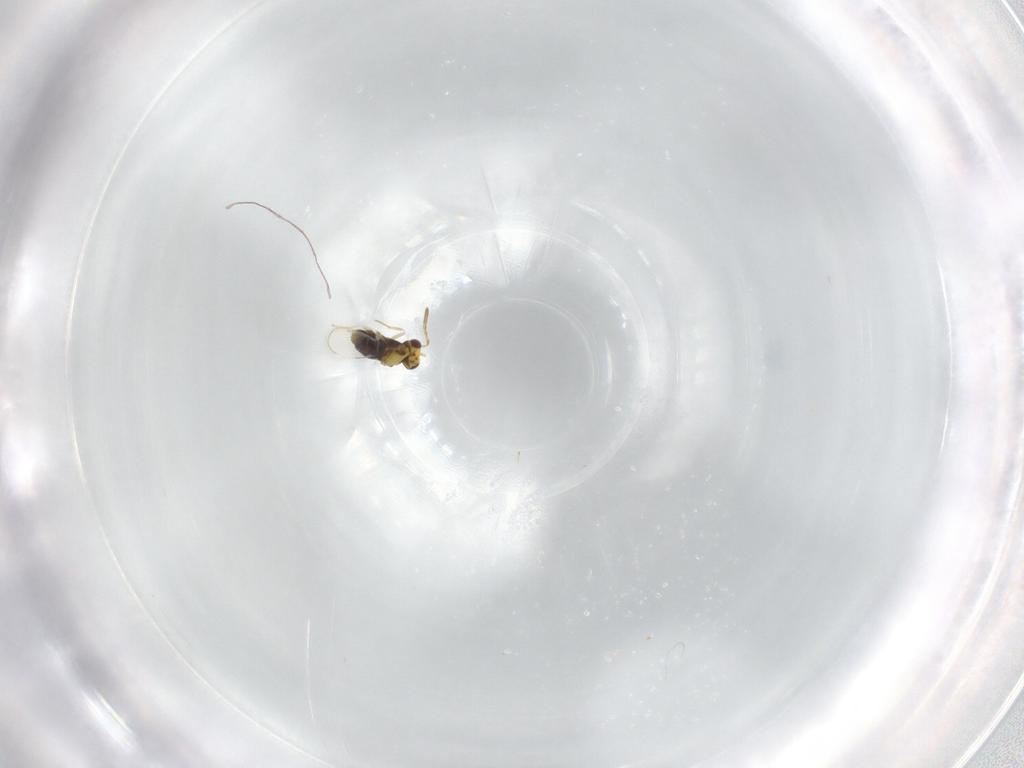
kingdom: Animalia
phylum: Arthropoda
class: Insecta
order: Hymenoptera
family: Aphelinidae
